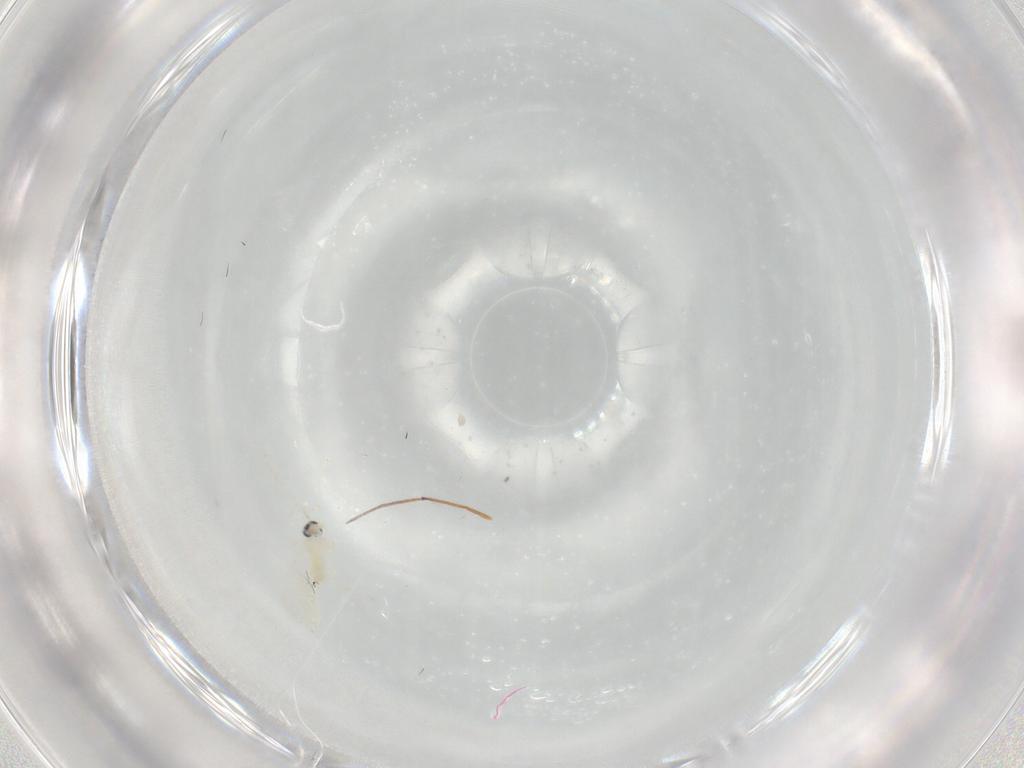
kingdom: Animalia
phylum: Arthropoda
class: Insecta
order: Diptera
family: Cecidomyiidae
